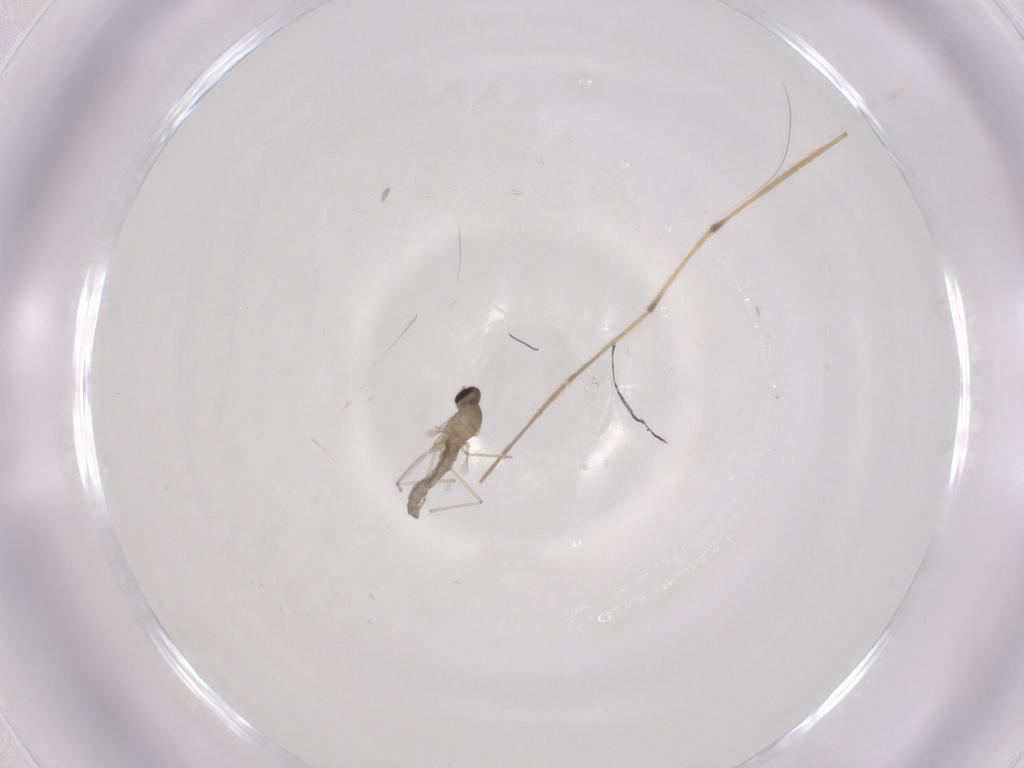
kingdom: Animalia
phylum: Arthropoda
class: Insecta
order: Diptera
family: Cecidomyiidae
